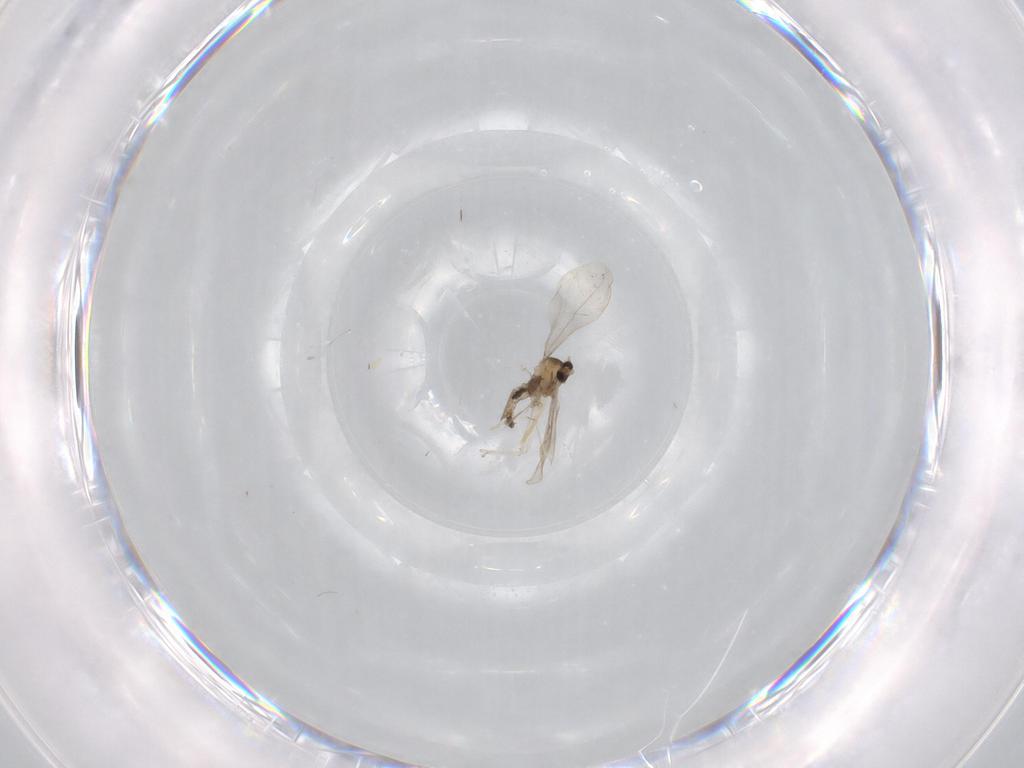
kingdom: Animalia
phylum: Arthropoda
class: Insecta
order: Diptera
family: Cecidomyiidae
